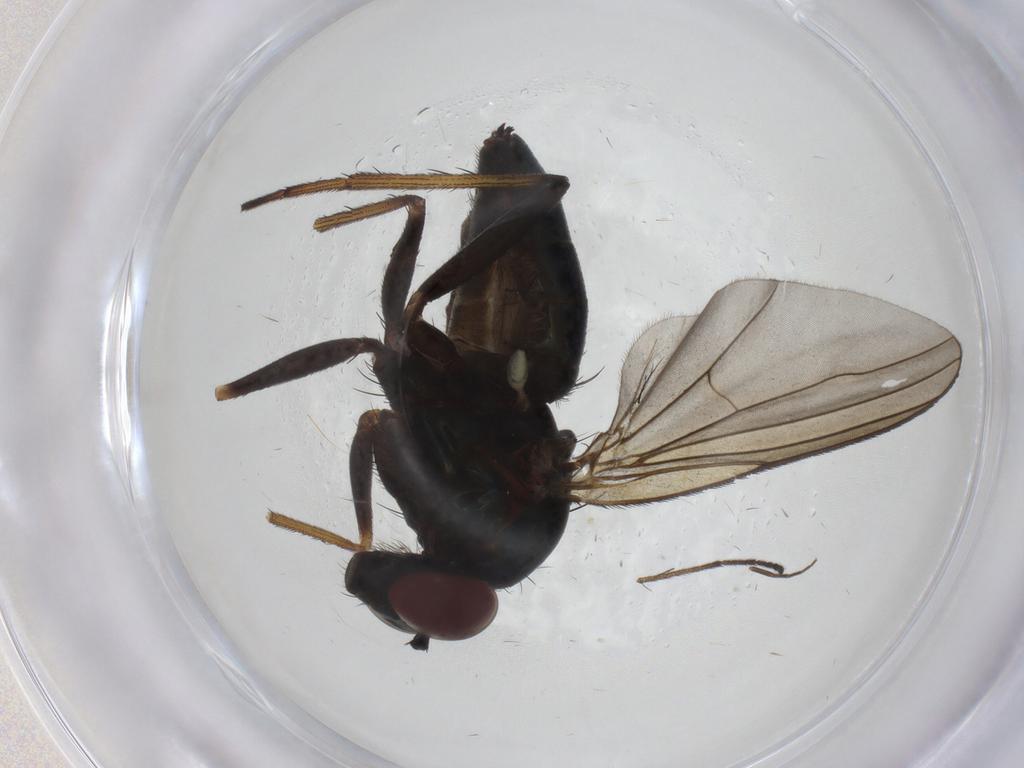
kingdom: Animalia
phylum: Arthropoda
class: Insecta
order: Diptera
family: Dolichopodidae
